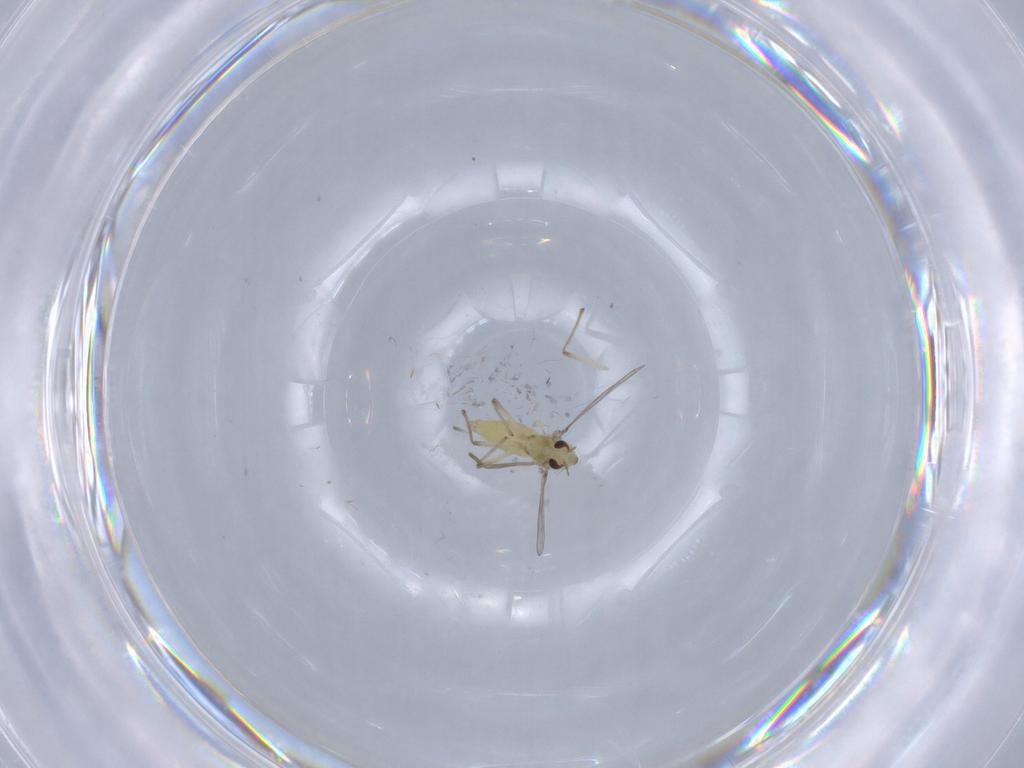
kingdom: Animalia
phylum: Arthropoda
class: Insecta
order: Diptera
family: Chironomidae
